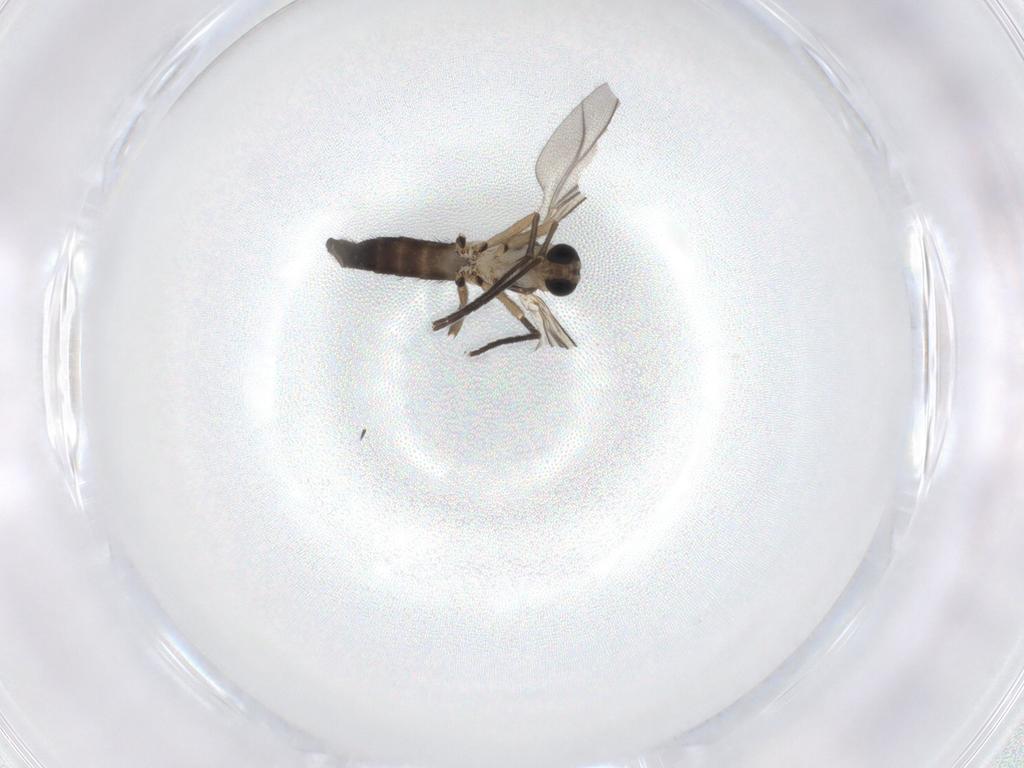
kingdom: Animalia
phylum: Arthropoda
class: Insecta
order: Diptera
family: Sciaridae
